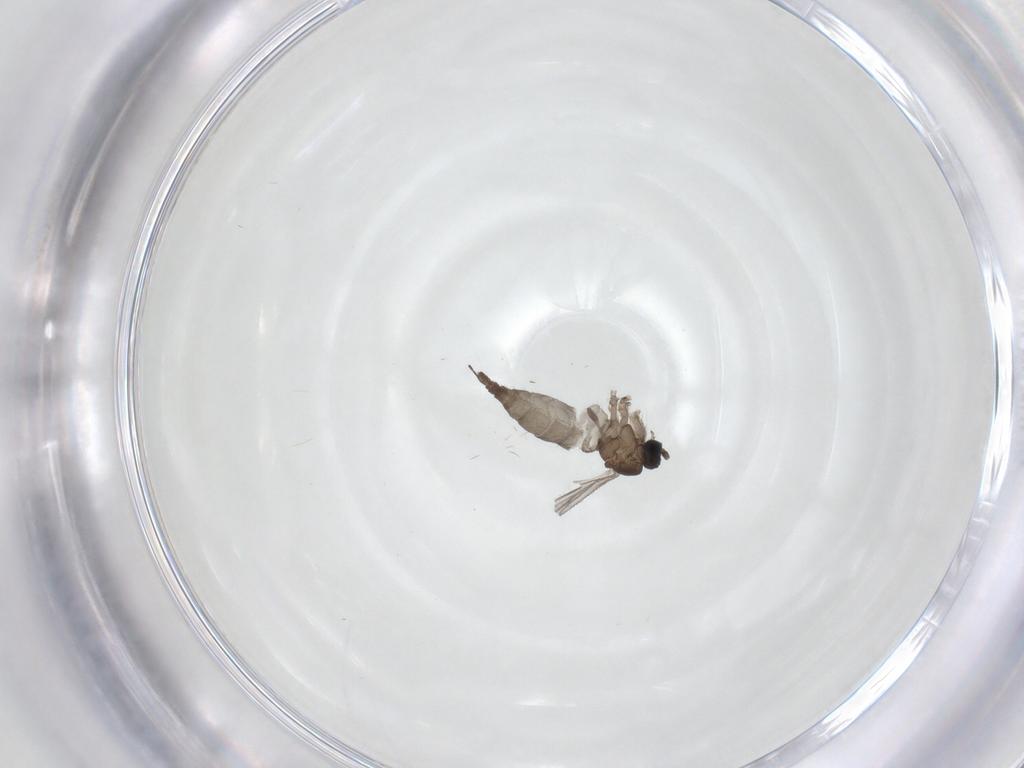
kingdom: Animalia
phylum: Arthropoda
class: Insecta
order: Diptera
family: Sciaridae
